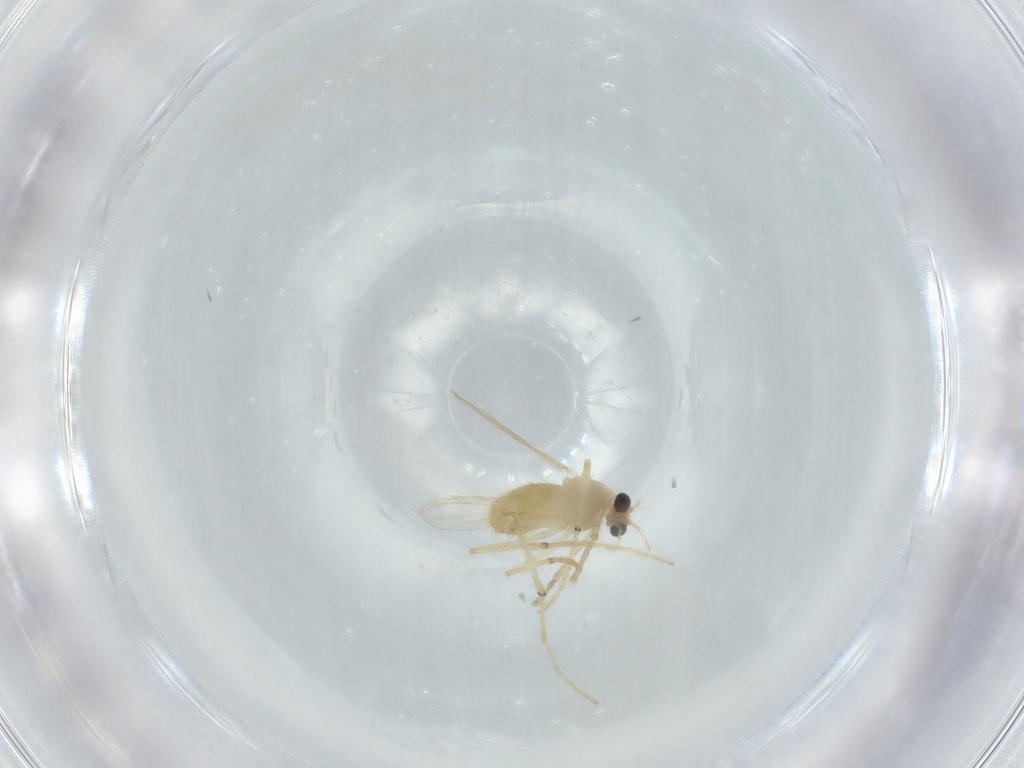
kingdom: Animalia
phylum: Arthropoda
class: Insecta
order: Diptera
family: Chironomidae
